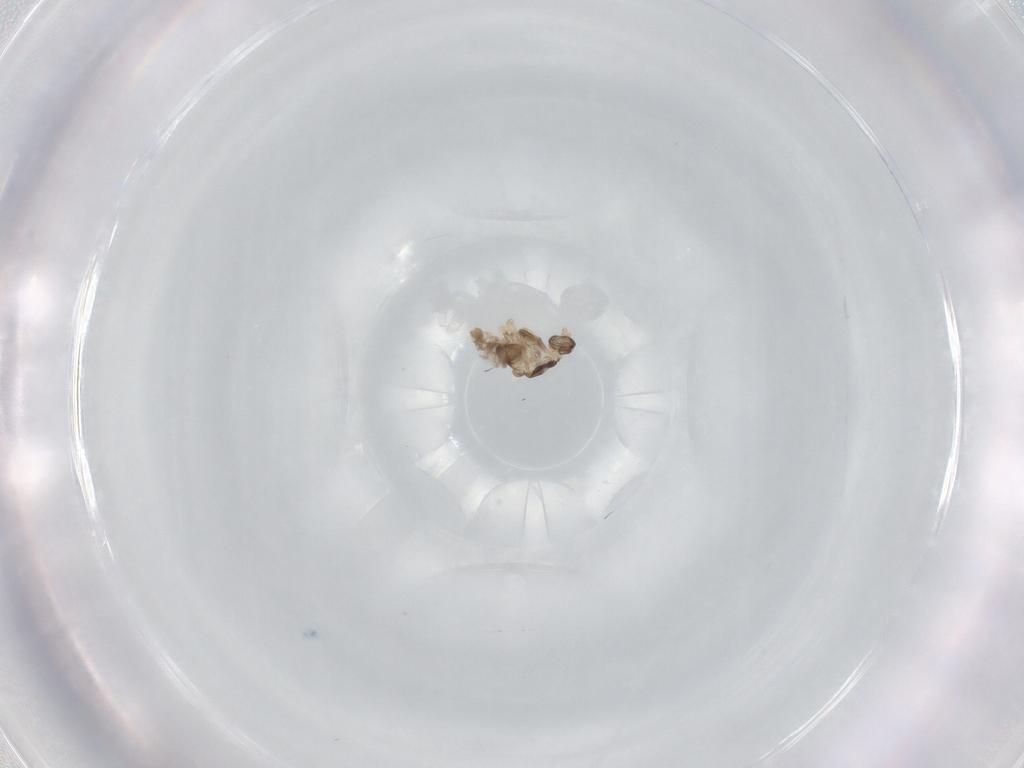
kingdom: Animalia
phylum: Arthropoda
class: Insecta
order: Diptera
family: Cecidomyiidae
